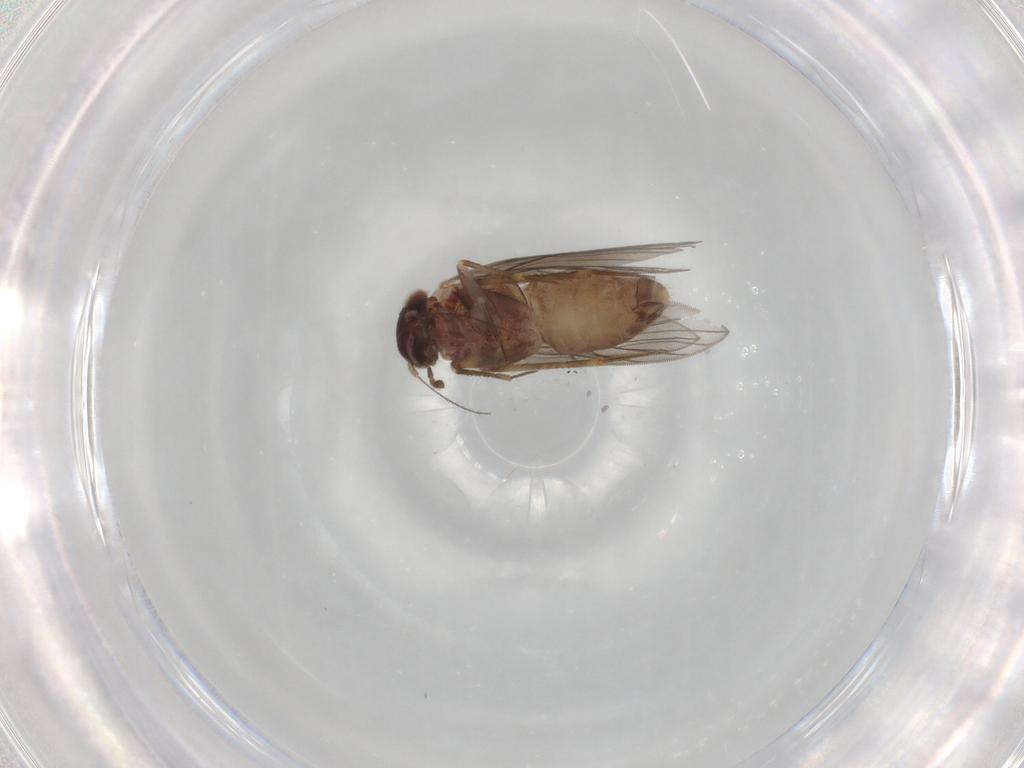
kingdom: Animalia
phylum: Arthropoda
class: Insecta
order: Psocodea
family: Lepidopsocidae
